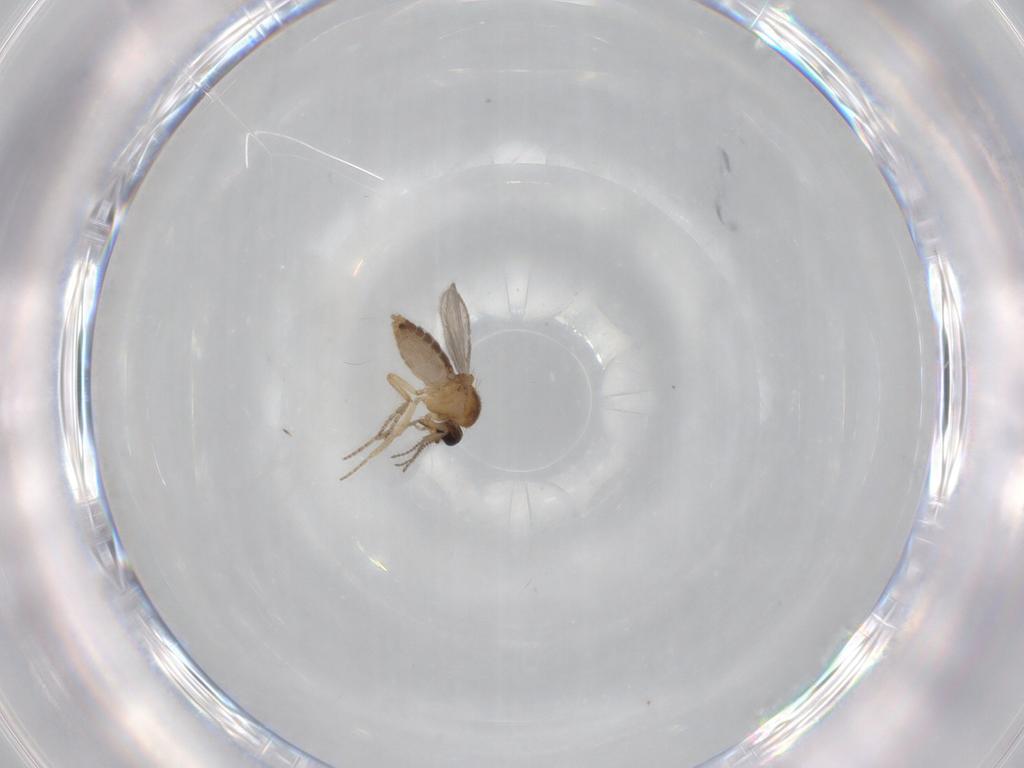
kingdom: Animalia
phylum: Arthropoda
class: Insecta
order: Diptera
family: Ceratopogonidae
